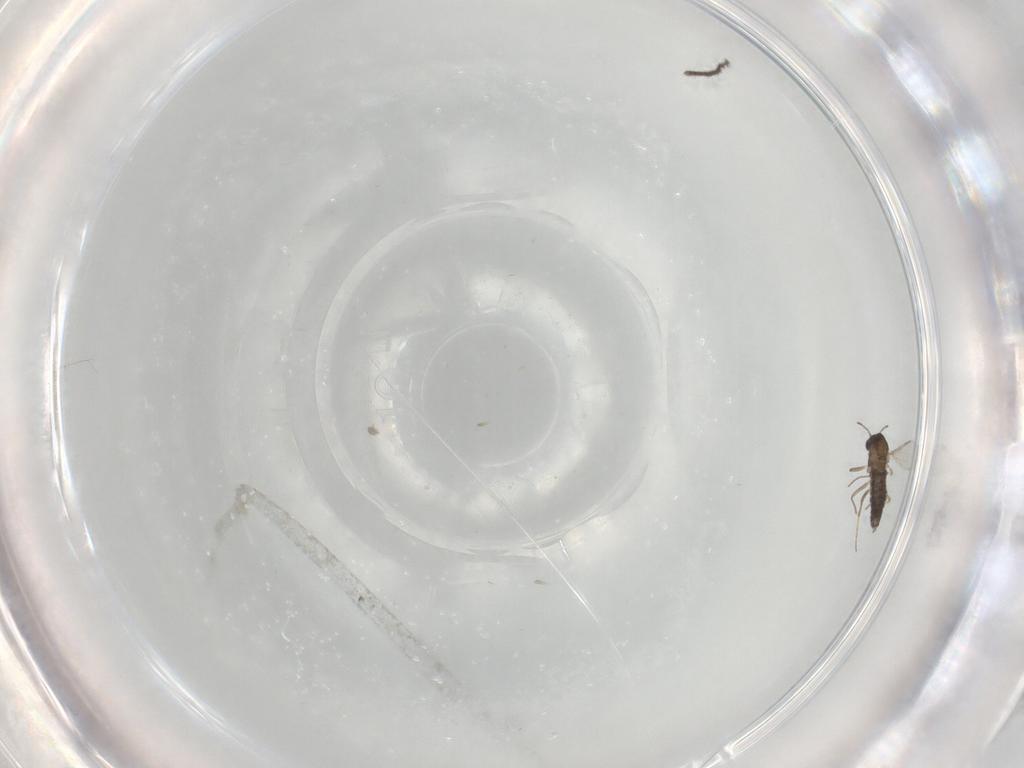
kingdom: Animalia
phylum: Arthropoda
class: Insecta
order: Diptera
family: Chironomidae
